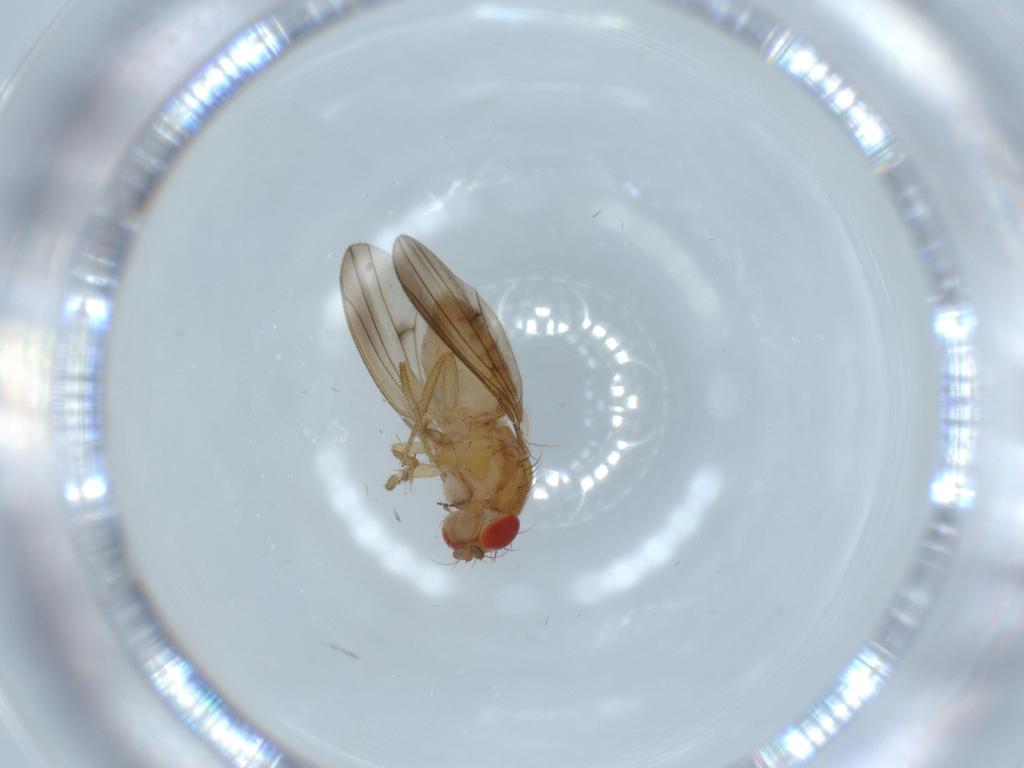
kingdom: Animalia
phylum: Arthropoda
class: Insecta
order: Diptera
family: Drosophilidae
